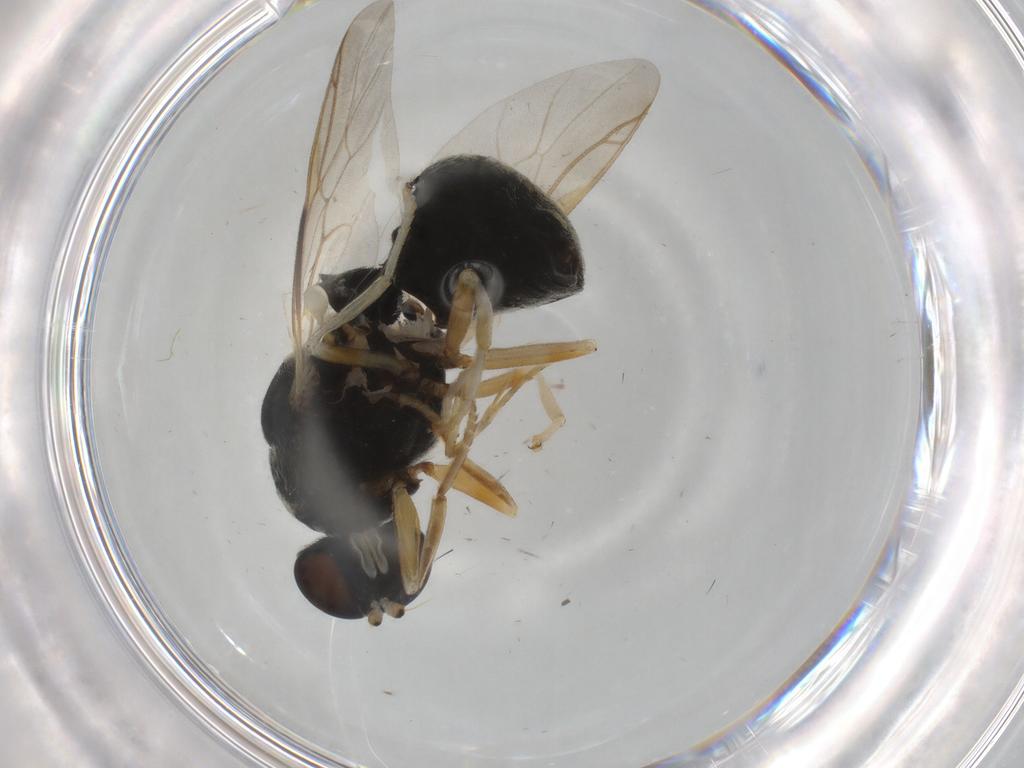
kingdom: Animalia
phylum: Arthropoda
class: Insecta
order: Diptera
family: Stratiomyidae
